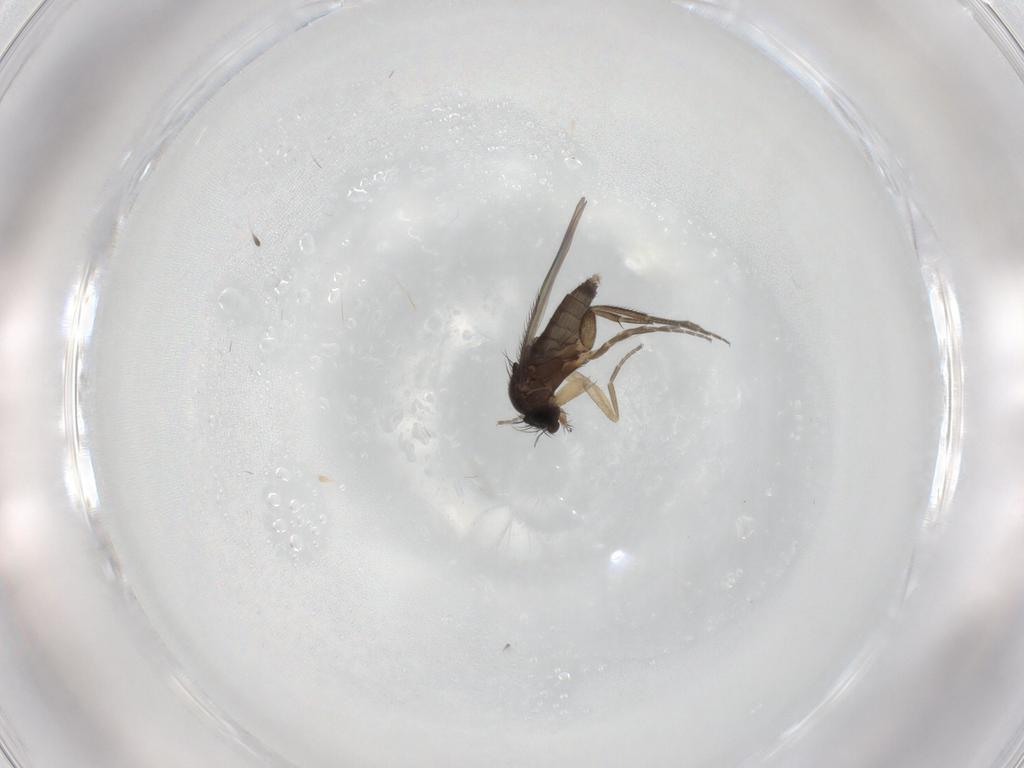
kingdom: Animalia
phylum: Arthropoda
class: Insecta
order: Diptera
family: Phoridae
